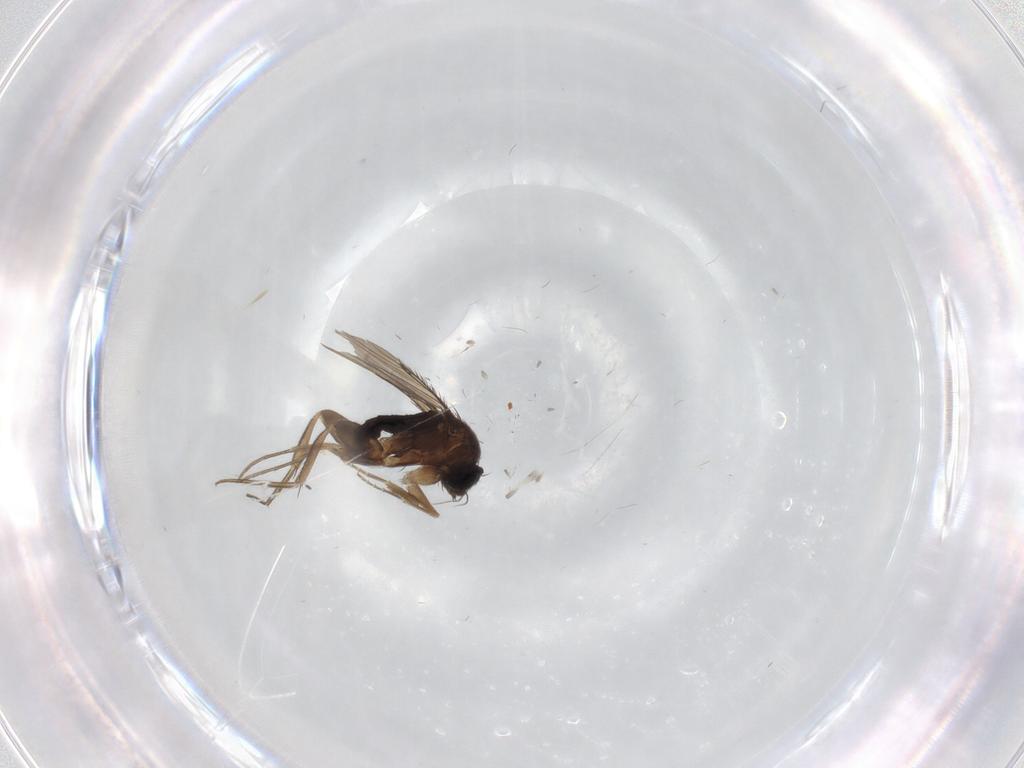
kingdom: Animalia
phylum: Arthropoda
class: Insecta
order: Diptera
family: Phoridae
